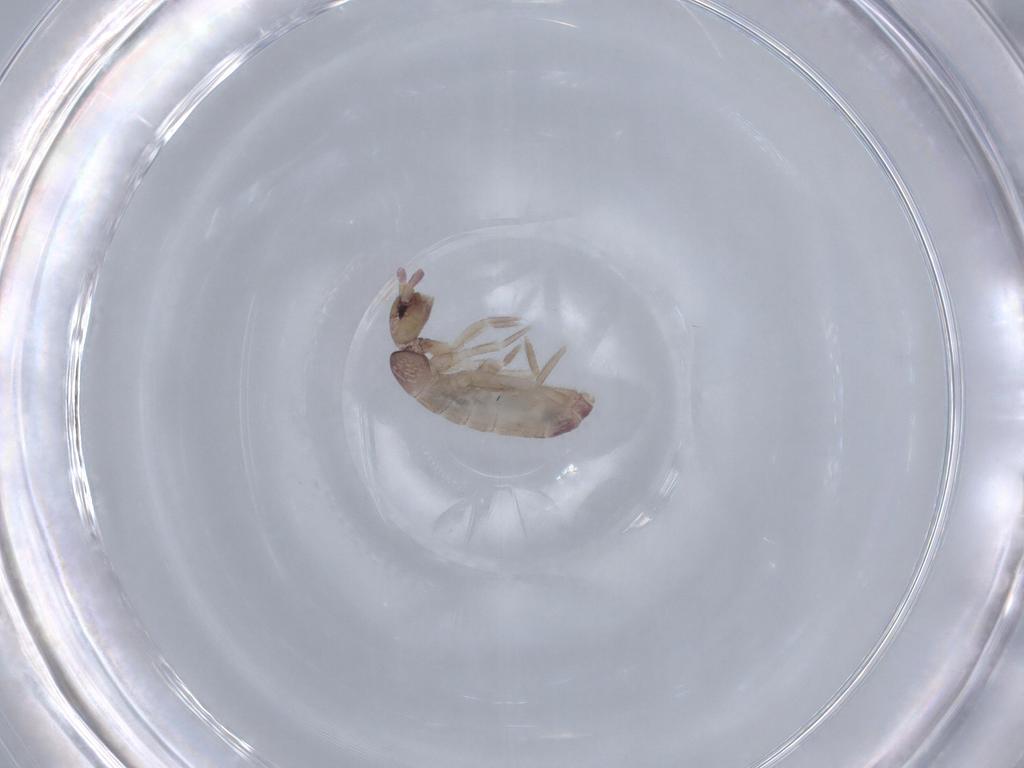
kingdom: Animalia
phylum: Arthropoda
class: Collembola
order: Entomobryomorpha
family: Tomoceridae
